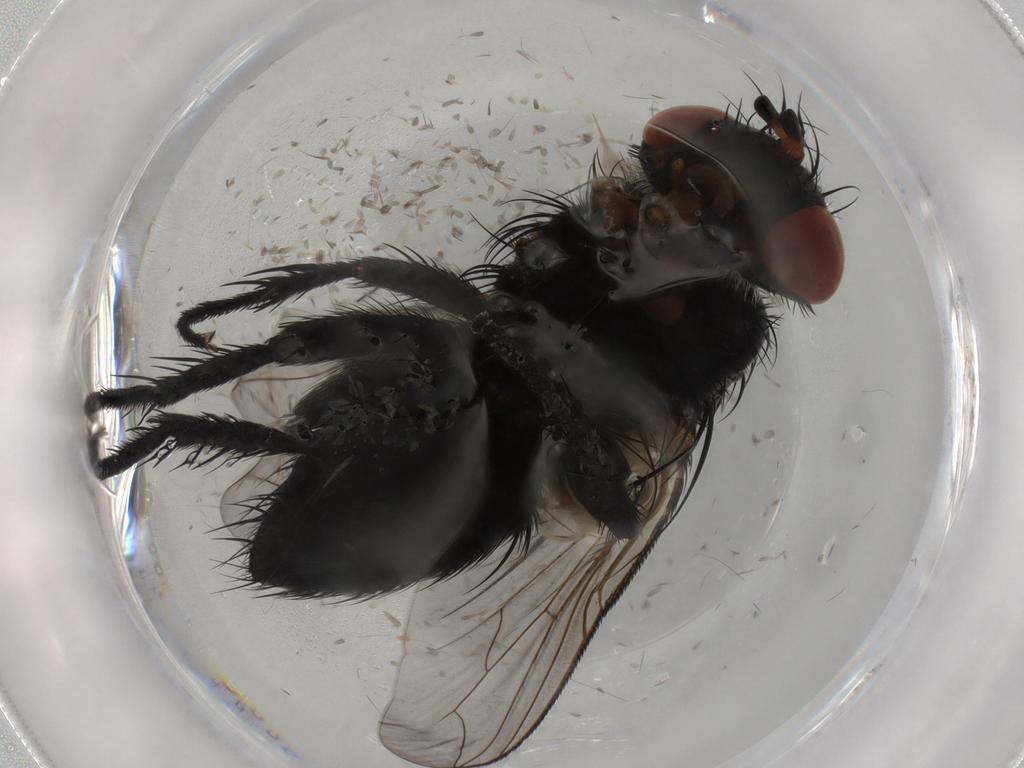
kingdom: Animalia
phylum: Arthropoda
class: Insecta
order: Diptera
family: Tachinidae
